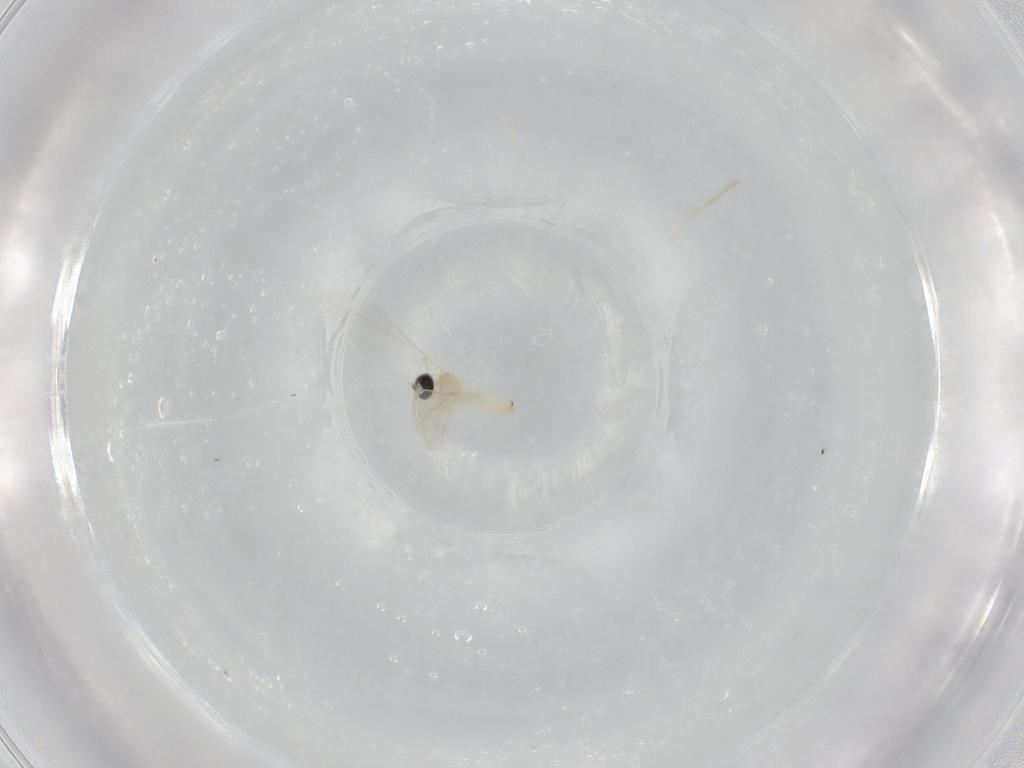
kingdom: Animalia
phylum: Arthropoda
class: Insecta
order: Diptera
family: Cecidomyiidae
